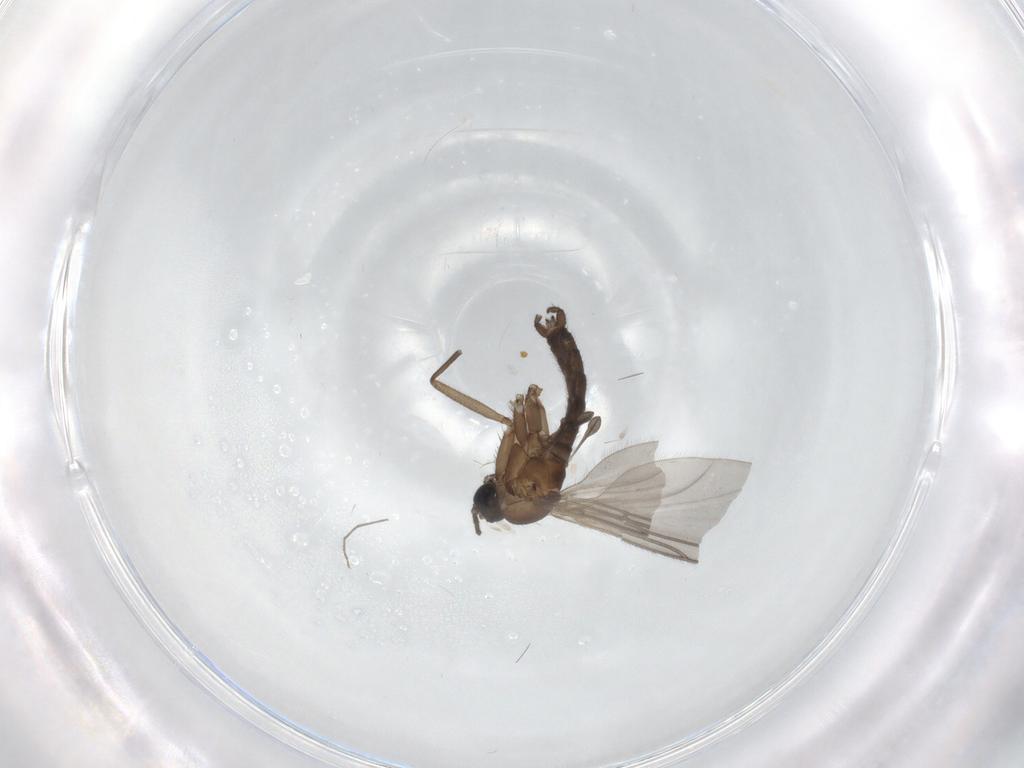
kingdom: Animalia
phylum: Arthropoda
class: Insecta
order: Diptera
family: Sciaridae
